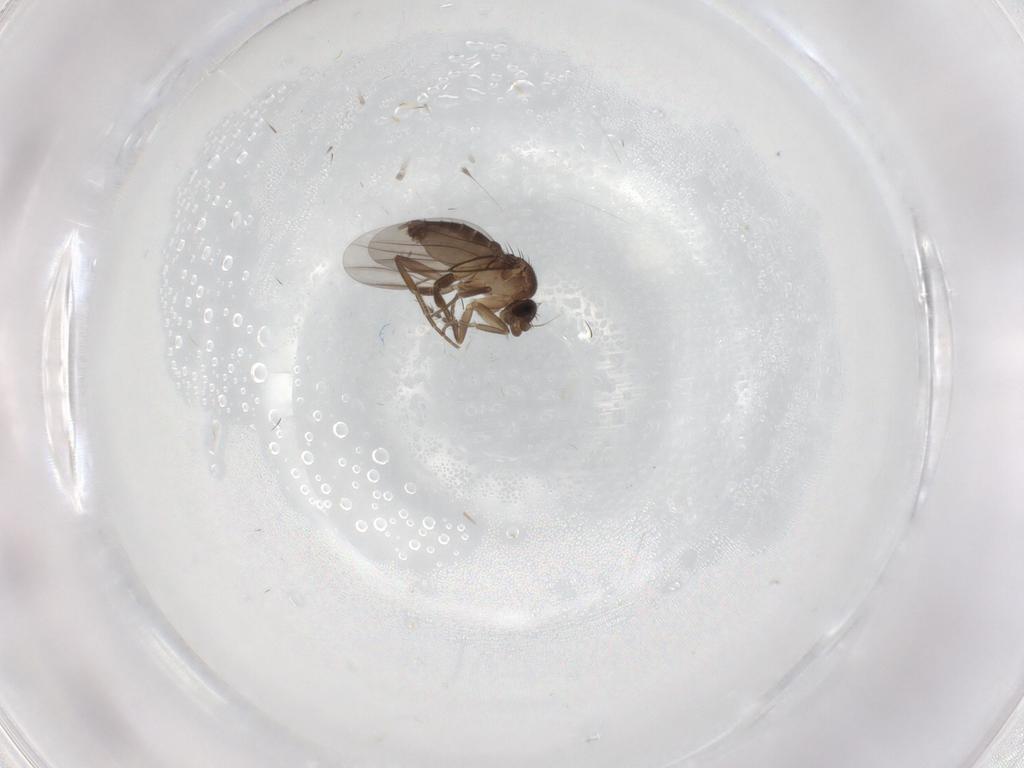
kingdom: Animalia
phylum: Arthropoda
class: Insecta
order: Diptera
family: Phoridae
